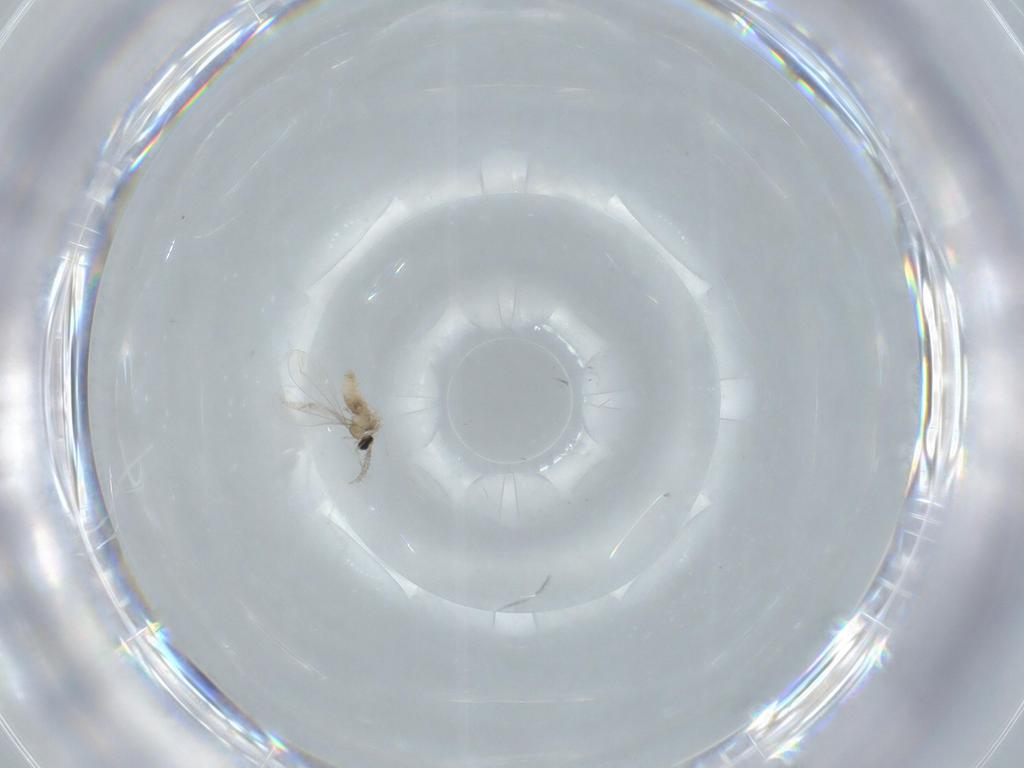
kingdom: Animalia
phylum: Arthropoda
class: Insecta
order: Diptera
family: Cecidomyiidae
